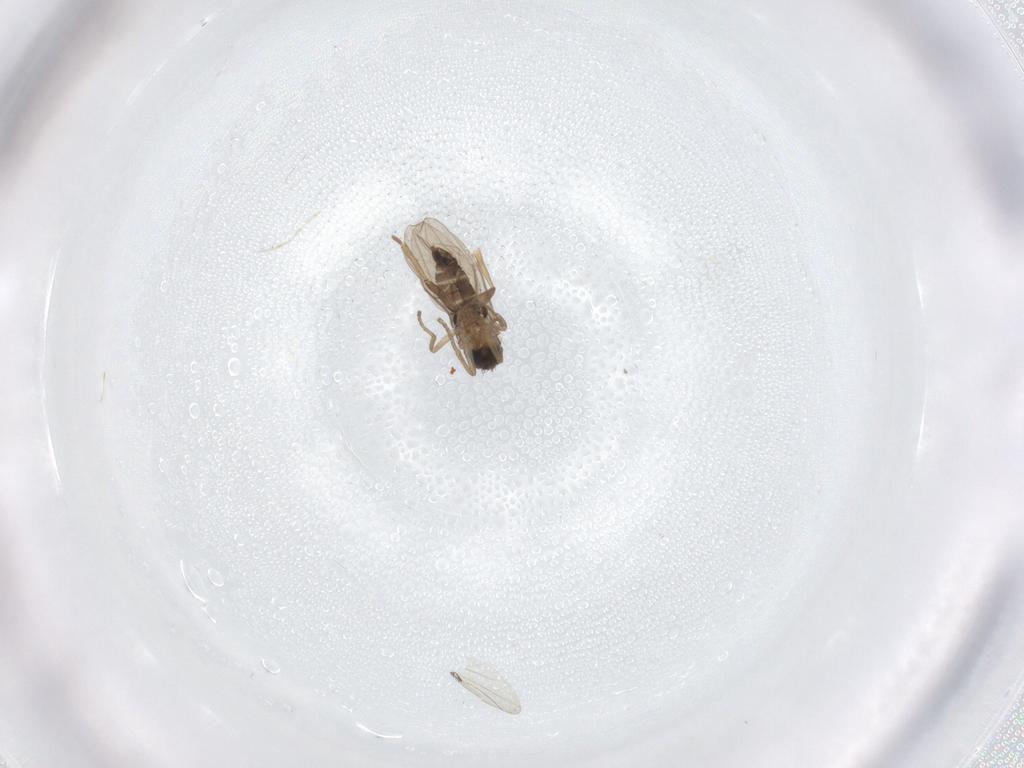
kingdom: Animalia
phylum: Arthropoda
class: Insecta
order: Diptera
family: Phoridae
